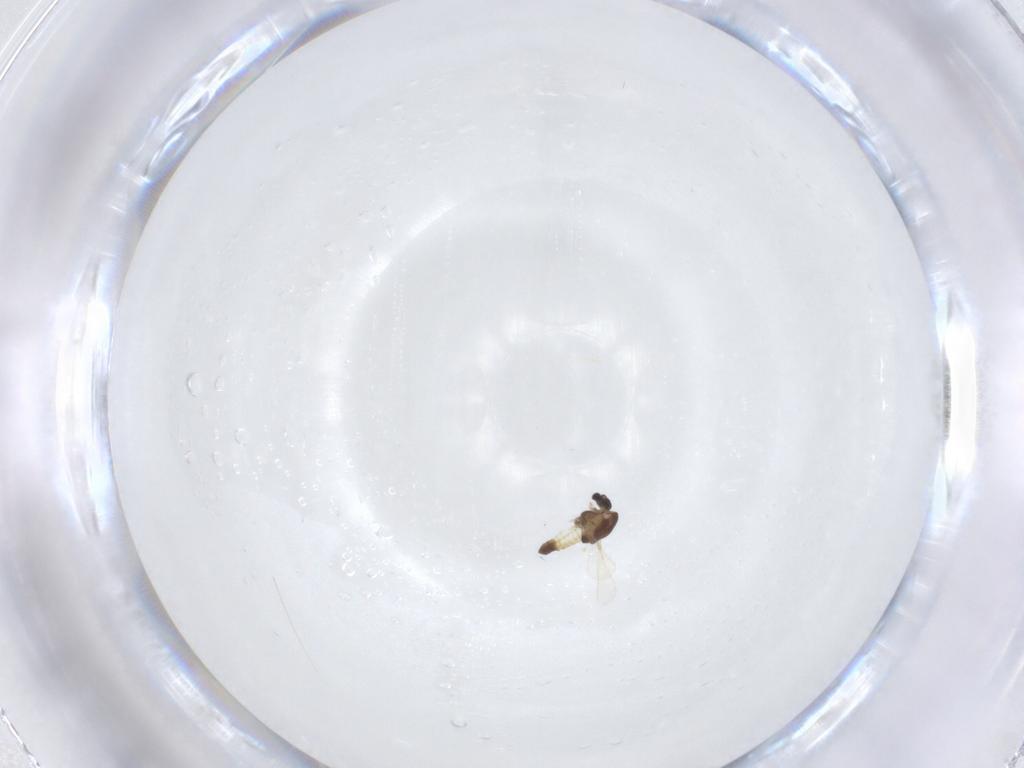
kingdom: Animalia
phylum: Arthropoda
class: Insecta
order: Diptera
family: Chironomidae
